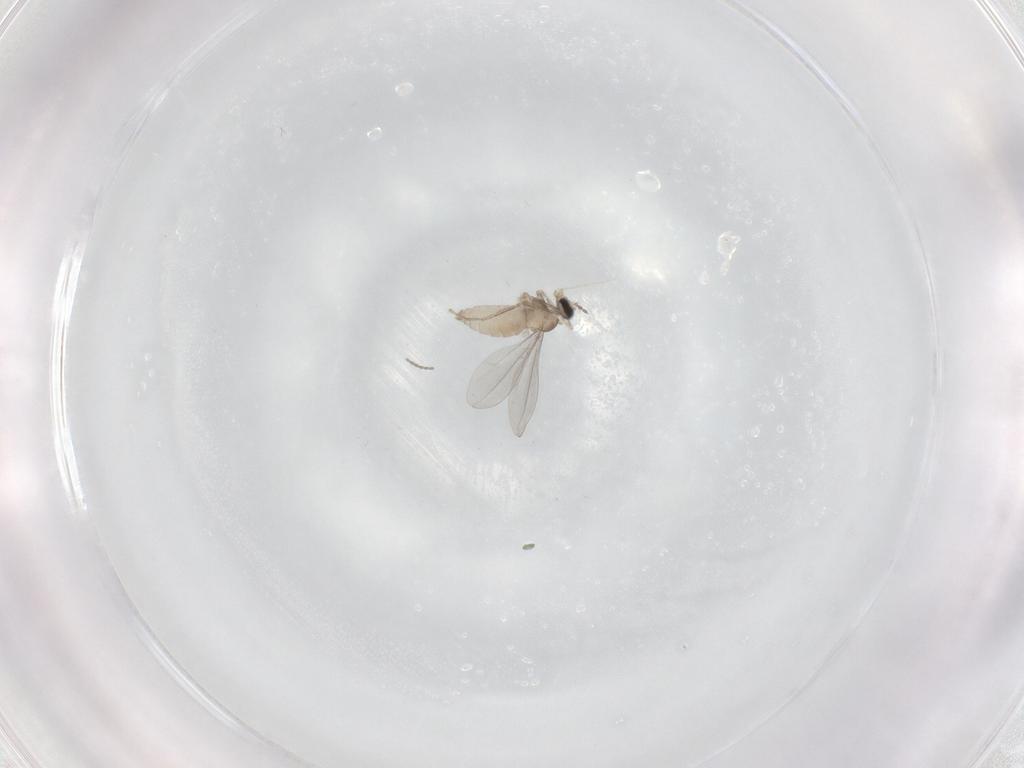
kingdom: Animalia
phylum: Arthropoda
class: Insecta
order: Diptera
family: Cecidomyiidae
